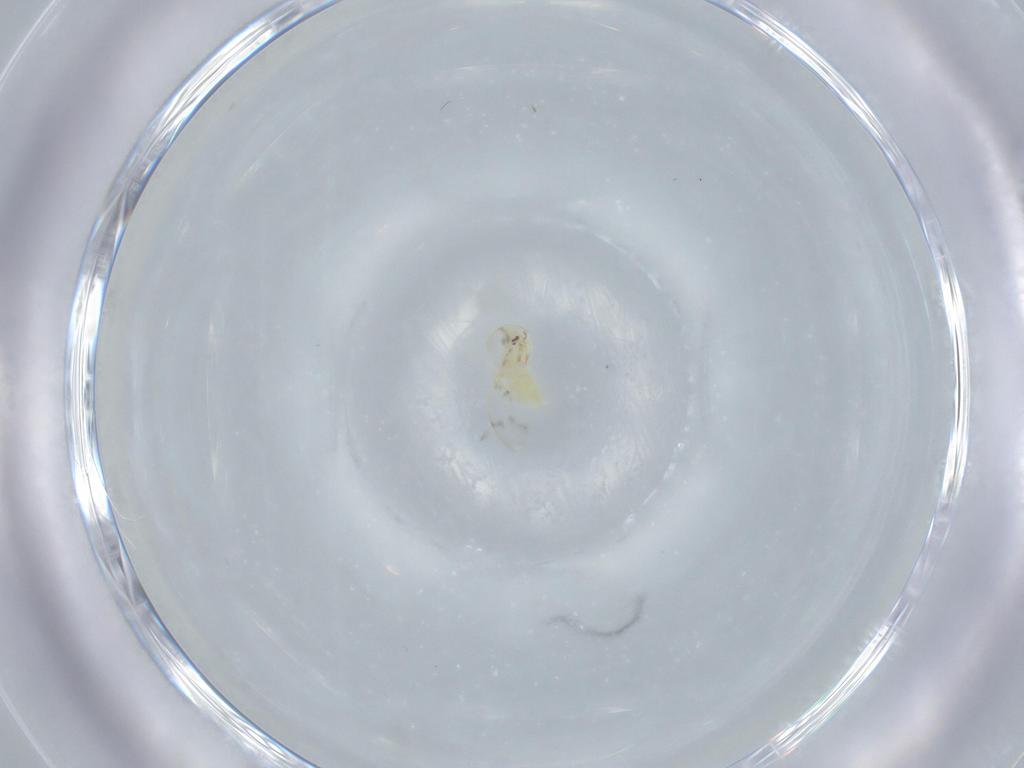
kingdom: Animalia
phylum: Arthropoda
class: Insecta
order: Hemiptera
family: Aleyrodidae
